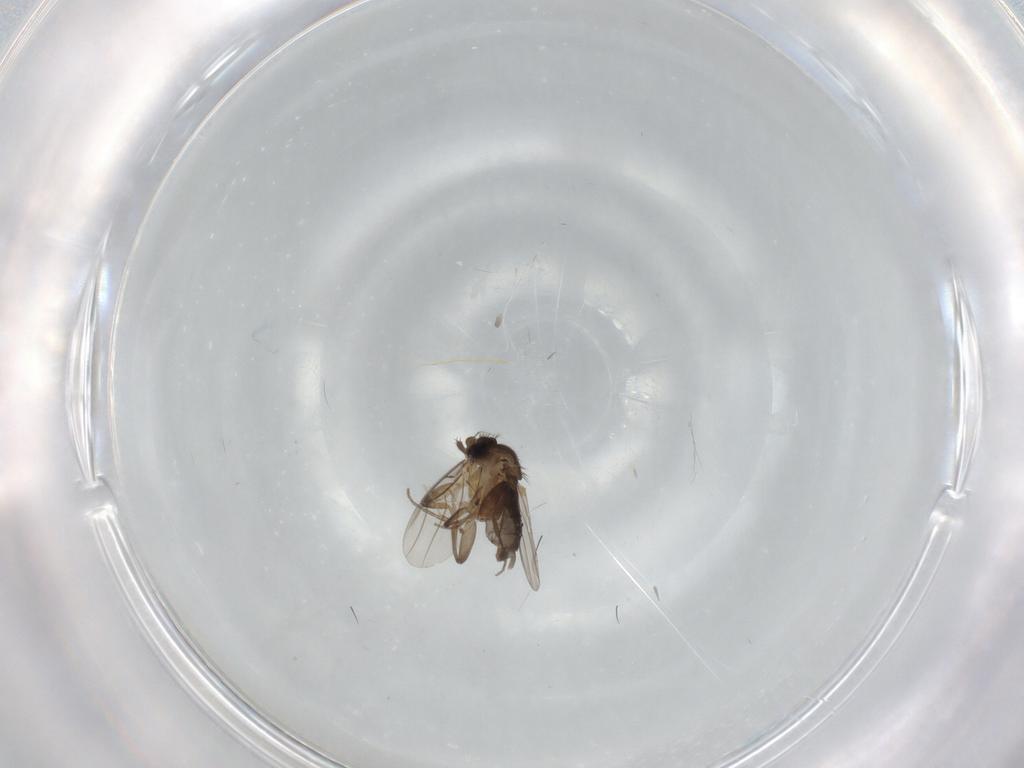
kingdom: Animalia
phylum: Arthropoda
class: Insecta
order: Diptera
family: Phoridae
